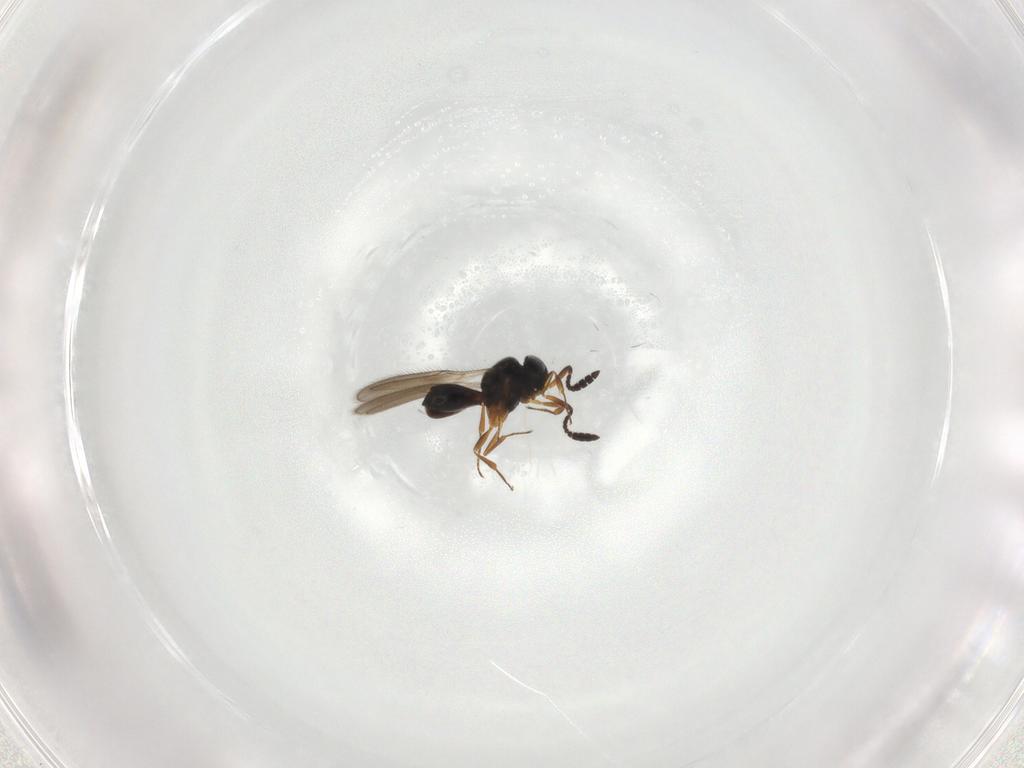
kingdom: Animalia
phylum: Arthropoda
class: Insecta
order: Hymenoptera
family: Scelionidae
